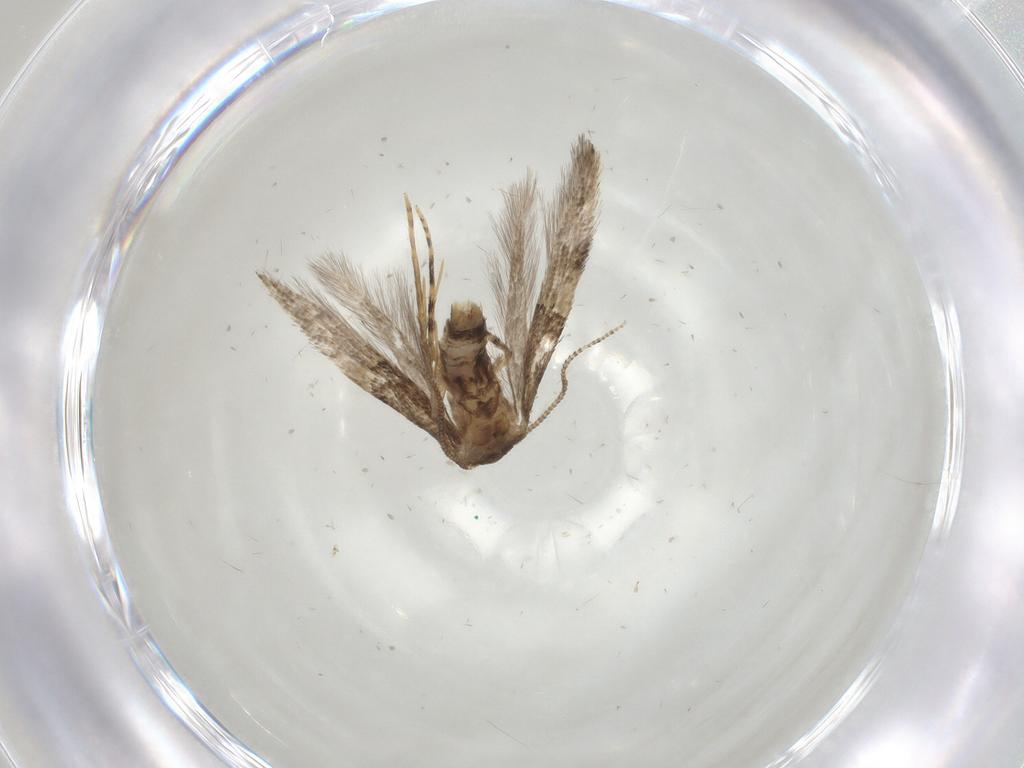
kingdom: Animalia
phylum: Arthropoda
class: Insecta
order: Lepidoptera
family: Tineidae
